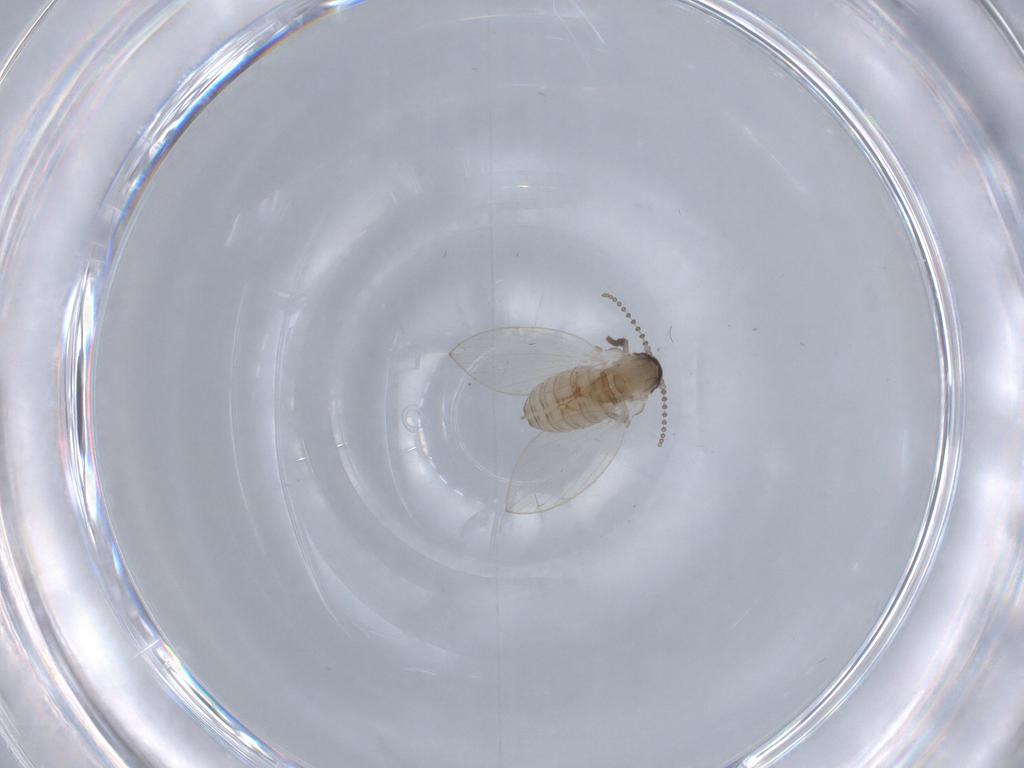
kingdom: Animalia
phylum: Arthropoda
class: Insecta
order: Diptera
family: Psychodidae
